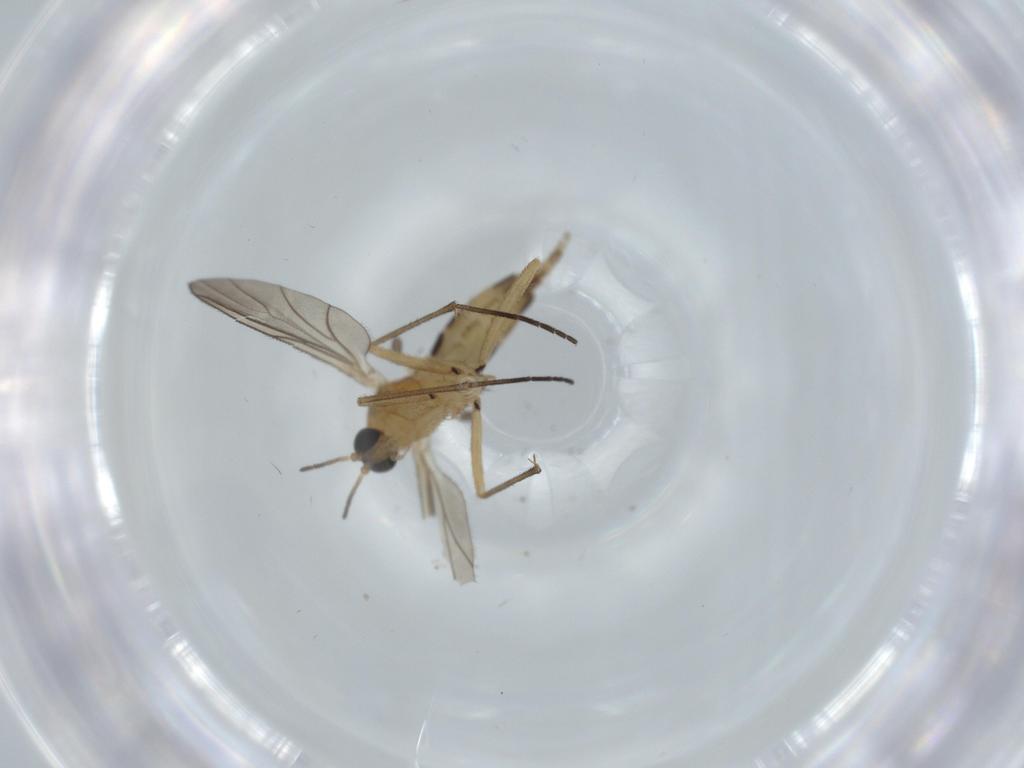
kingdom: Animalia
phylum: Arthropoda
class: Insecta
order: Diptera
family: Sciaridae
